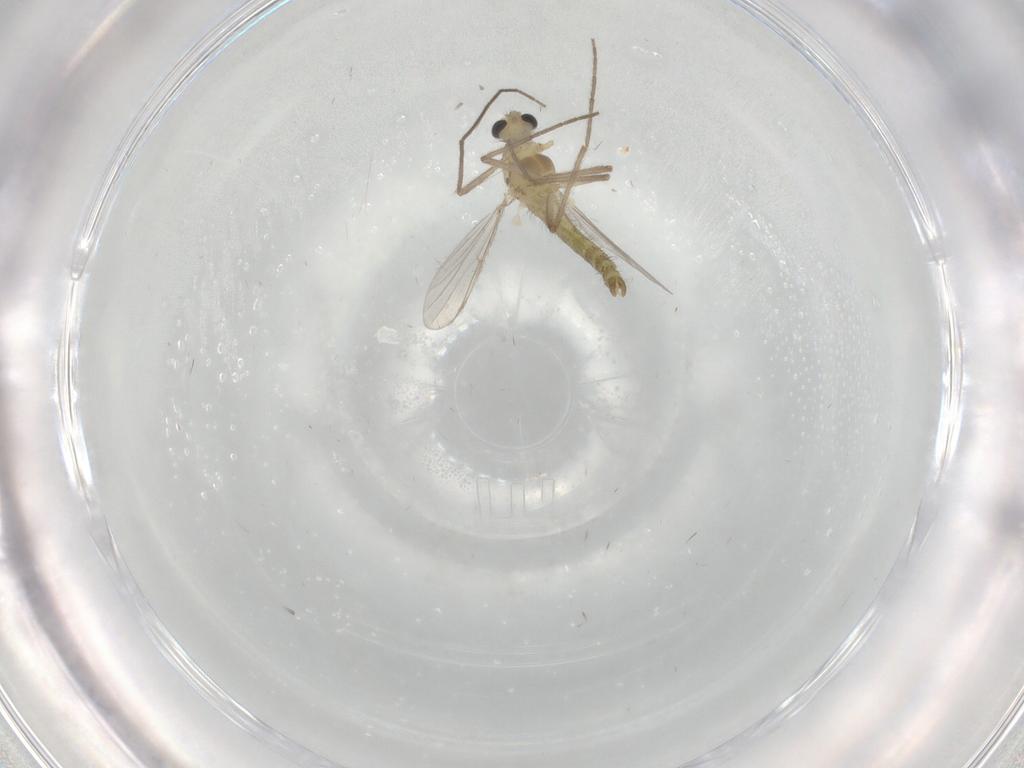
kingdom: Animalia
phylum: Arthropoda
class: Insecta
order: Diptera
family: Chironomidae
